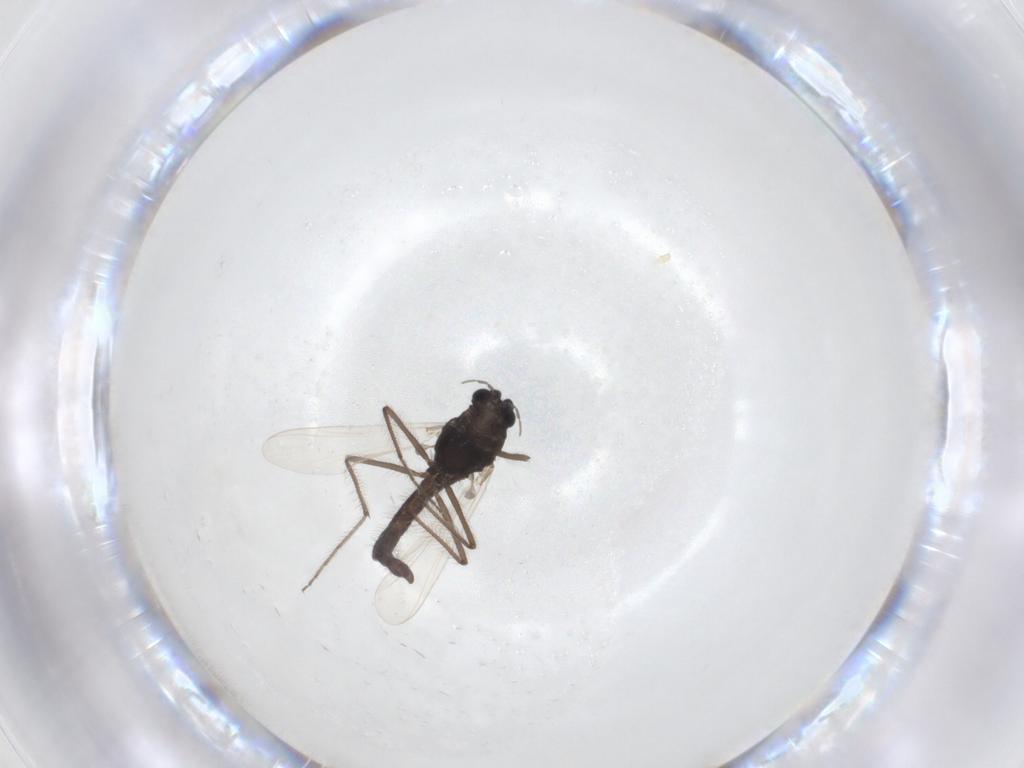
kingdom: Animalia
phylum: Arthropoda
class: Insecta
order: Diptera
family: Chironomidae
